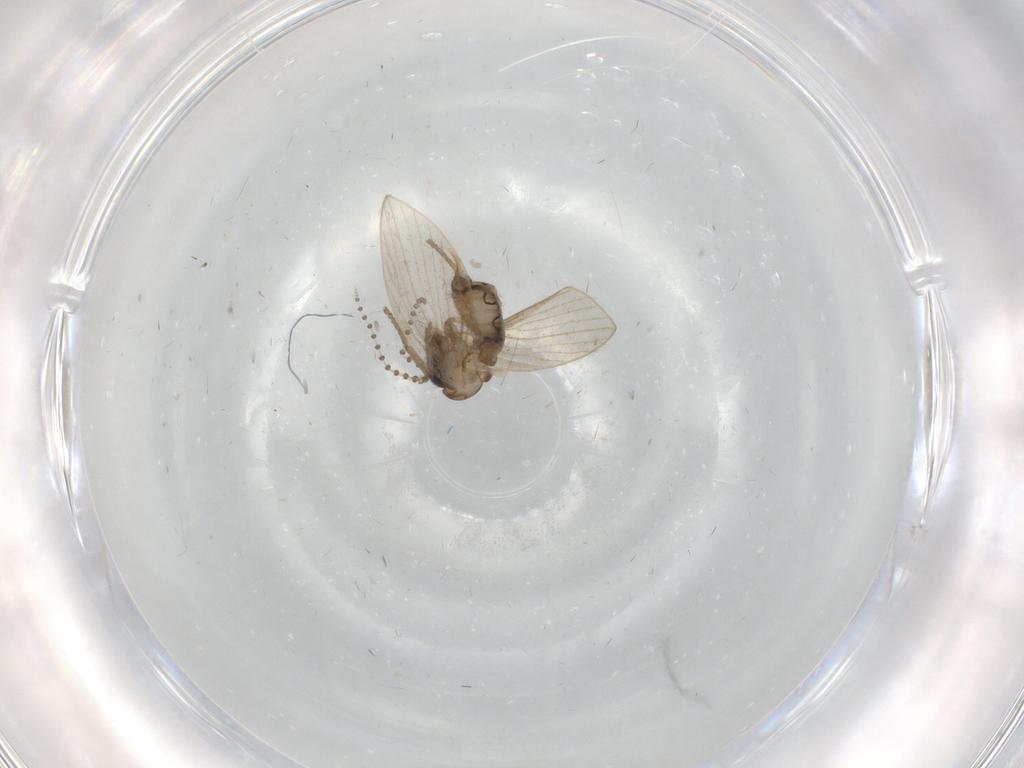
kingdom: Animalia
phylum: Arthropoda
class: Insecta
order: Diptera
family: Psychodidae
